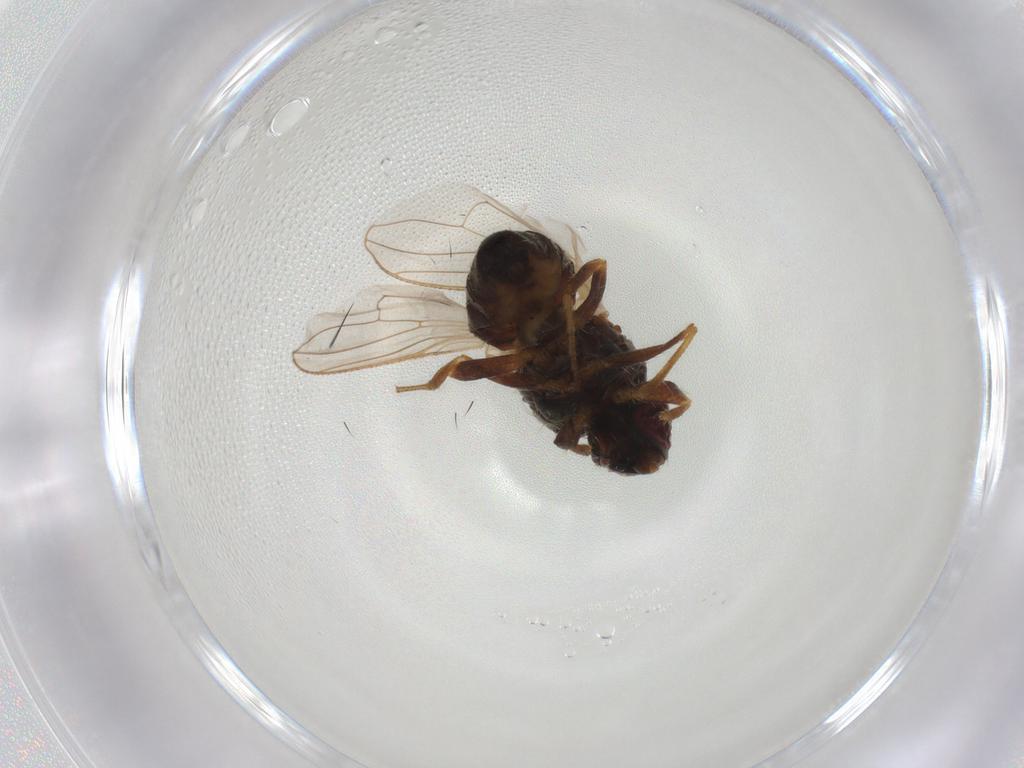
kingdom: Animalia
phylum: Arthropoda
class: Insecta
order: Diptera
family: Muscidae
